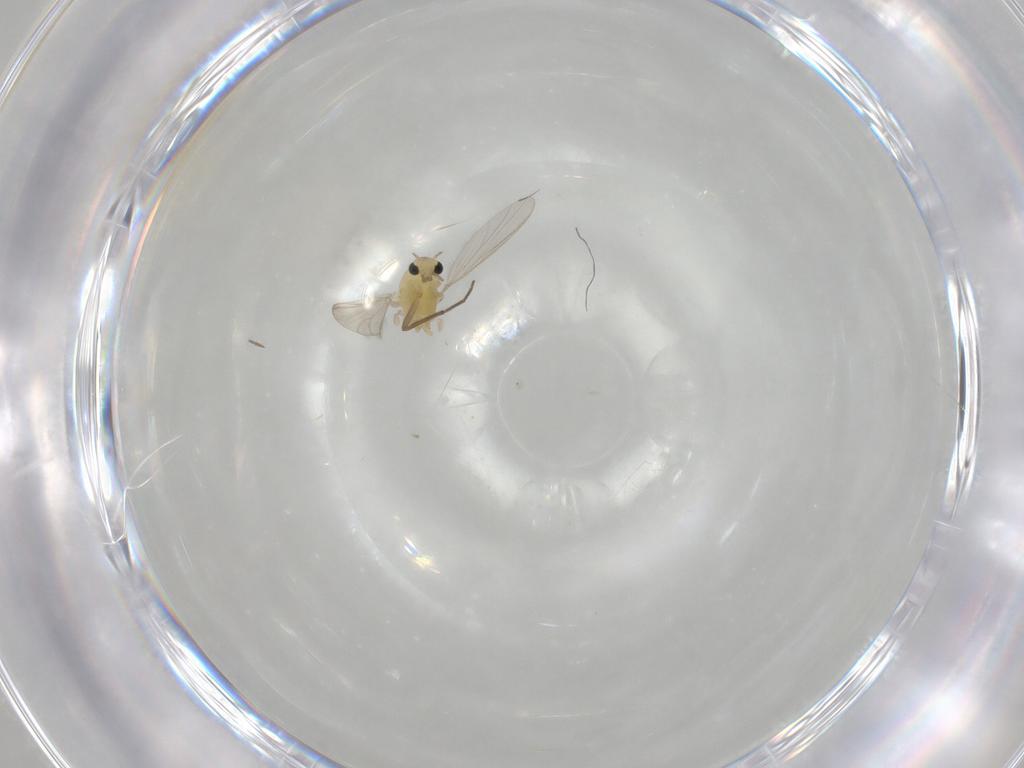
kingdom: Animalia
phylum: Arthropoda
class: Insecta
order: Diptera
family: Chironomidae
